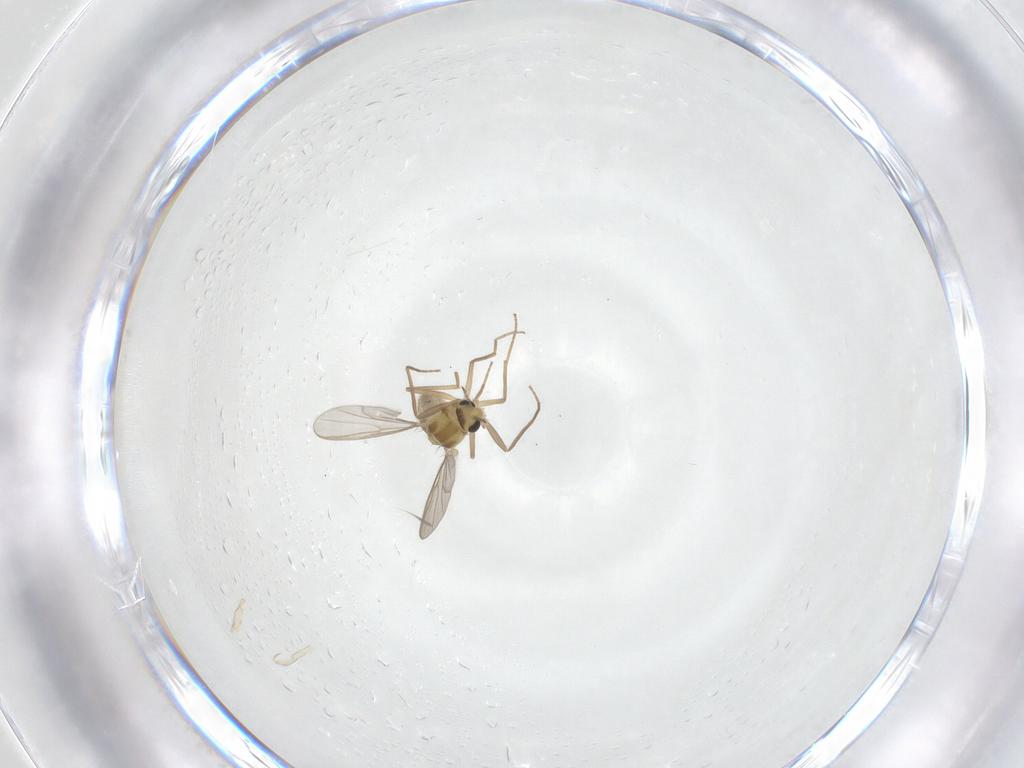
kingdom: Animalia
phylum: Arthropoda
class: Insecta
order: Diptera
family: Chironomidae
